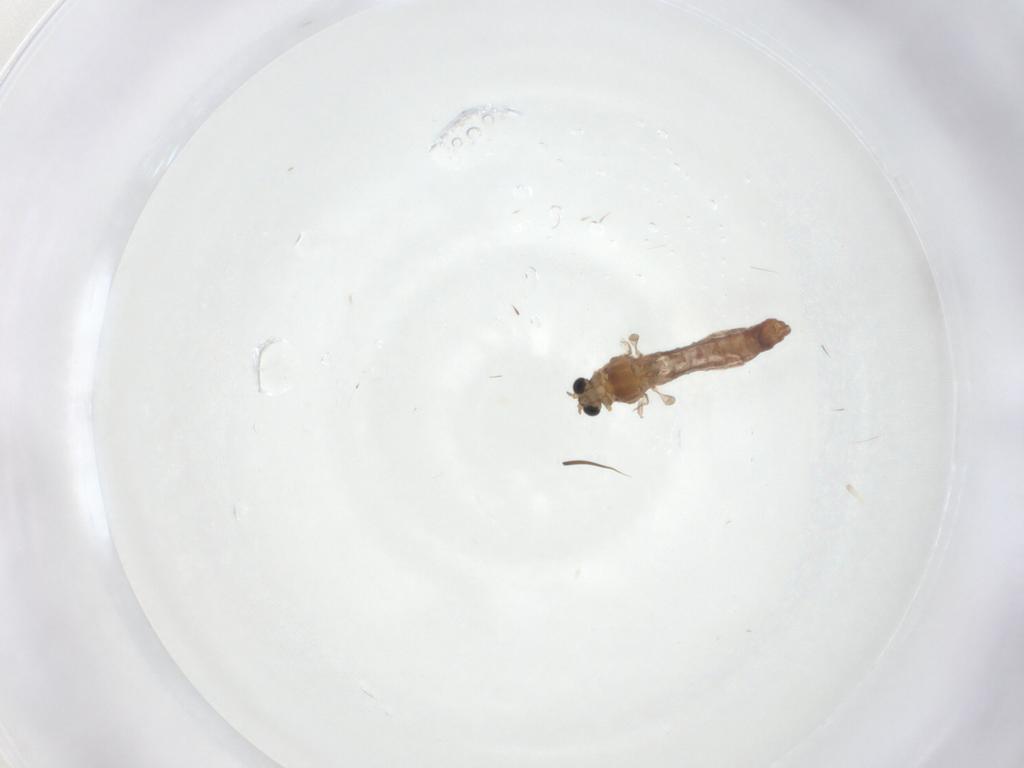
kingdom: Animalia
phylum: Arthropoda
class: Insecta
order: Diptera
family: Chironomidae
